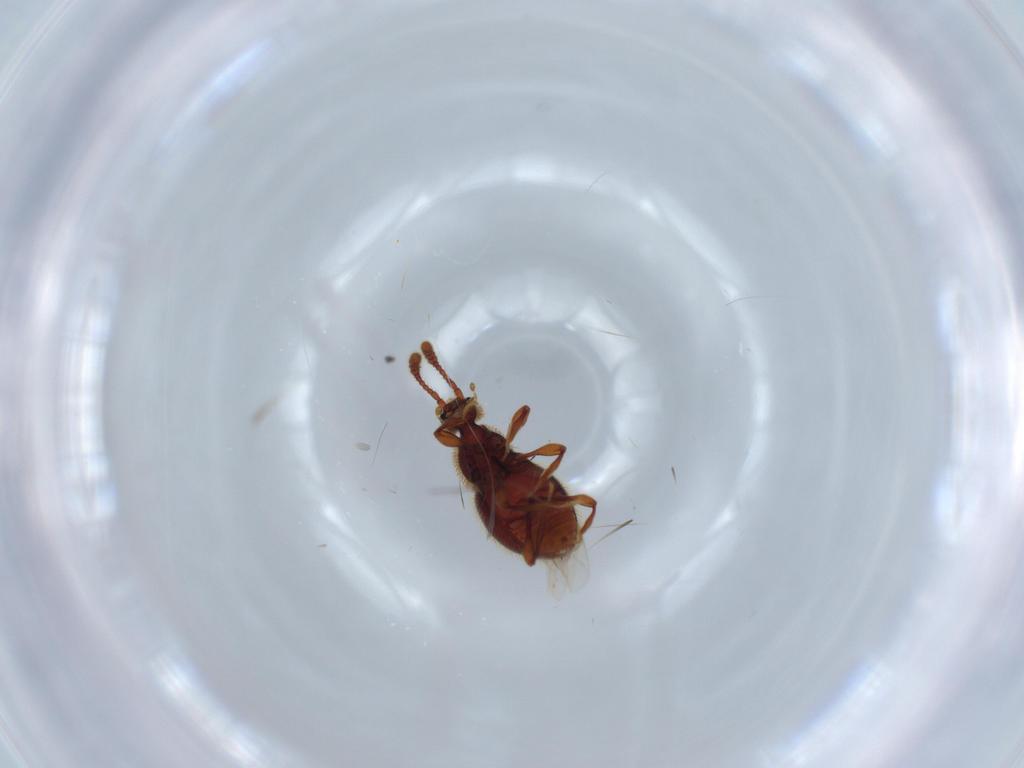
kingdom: Animalia
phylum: Arthropoda
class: Insecta
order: Coleoptera
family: Staphylinidae
